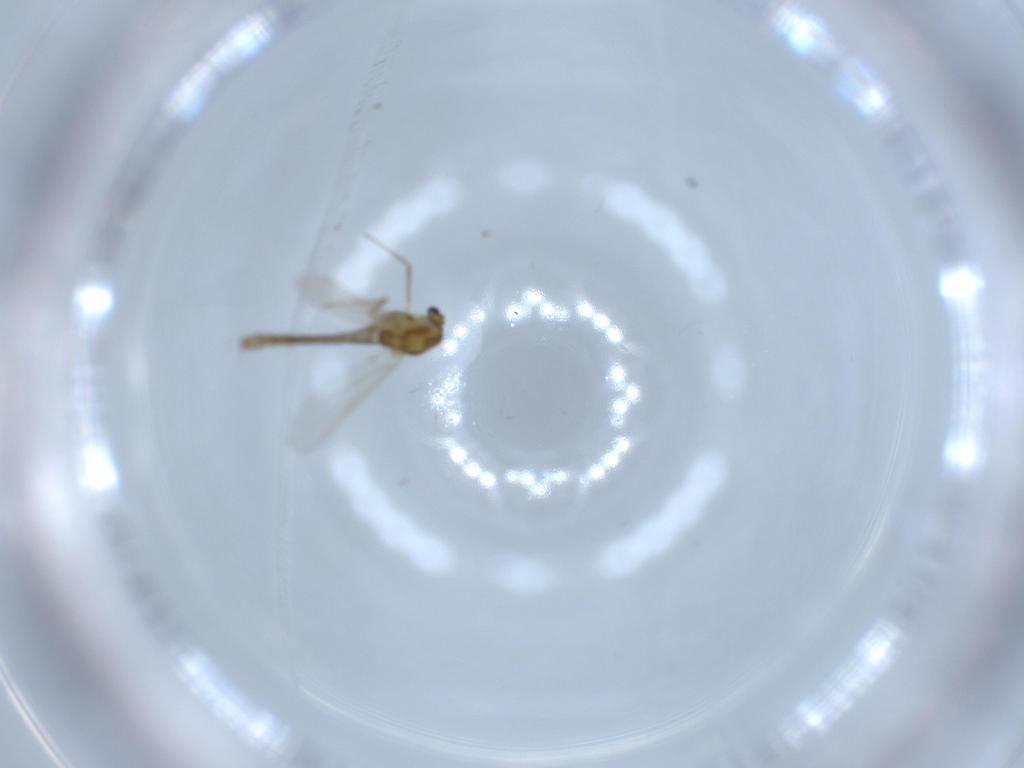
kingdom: Animalia
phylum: Arthropoda
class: Insecta
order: Diptera
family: Chironomidae
